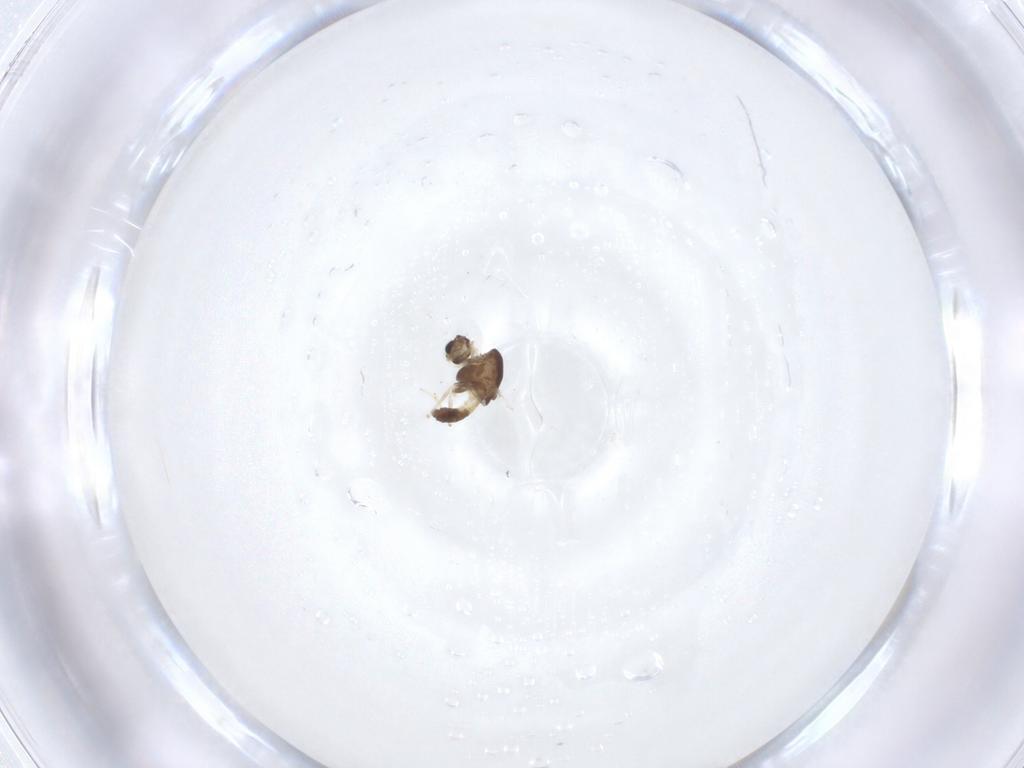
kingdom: Animalia
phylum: Arthropoda
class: Insecta
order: Diptera
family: Chironomidae
